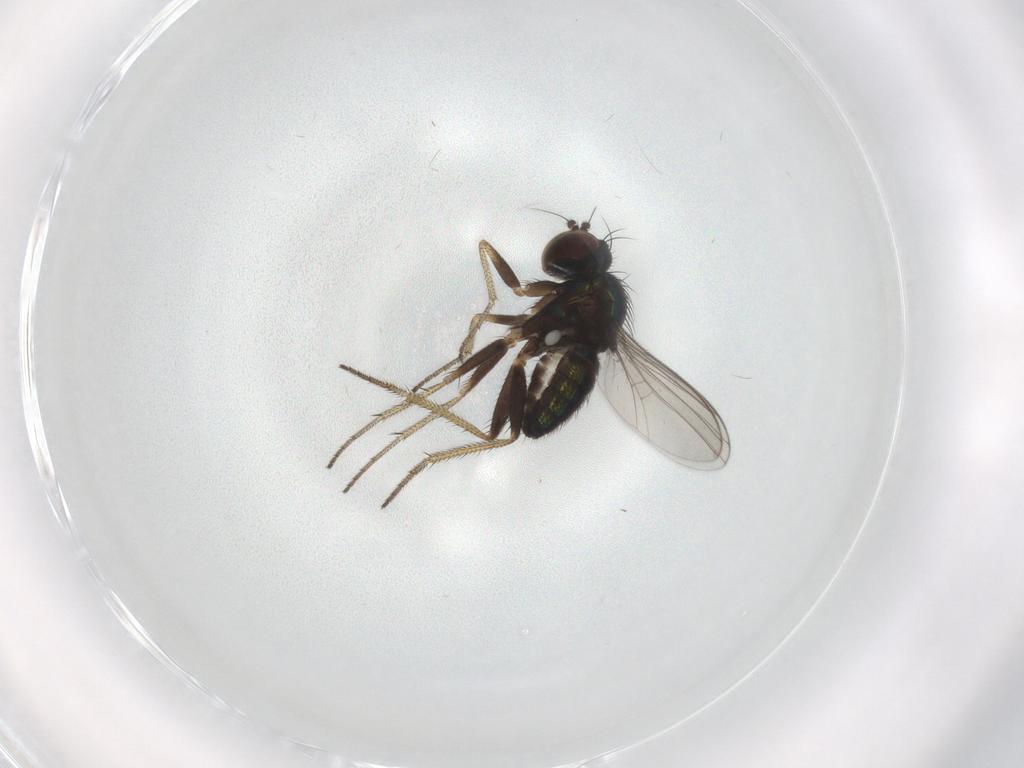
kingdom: Animalia
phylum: Arthropoda
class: Insecta
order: Diptera
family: Dolichopodidae
